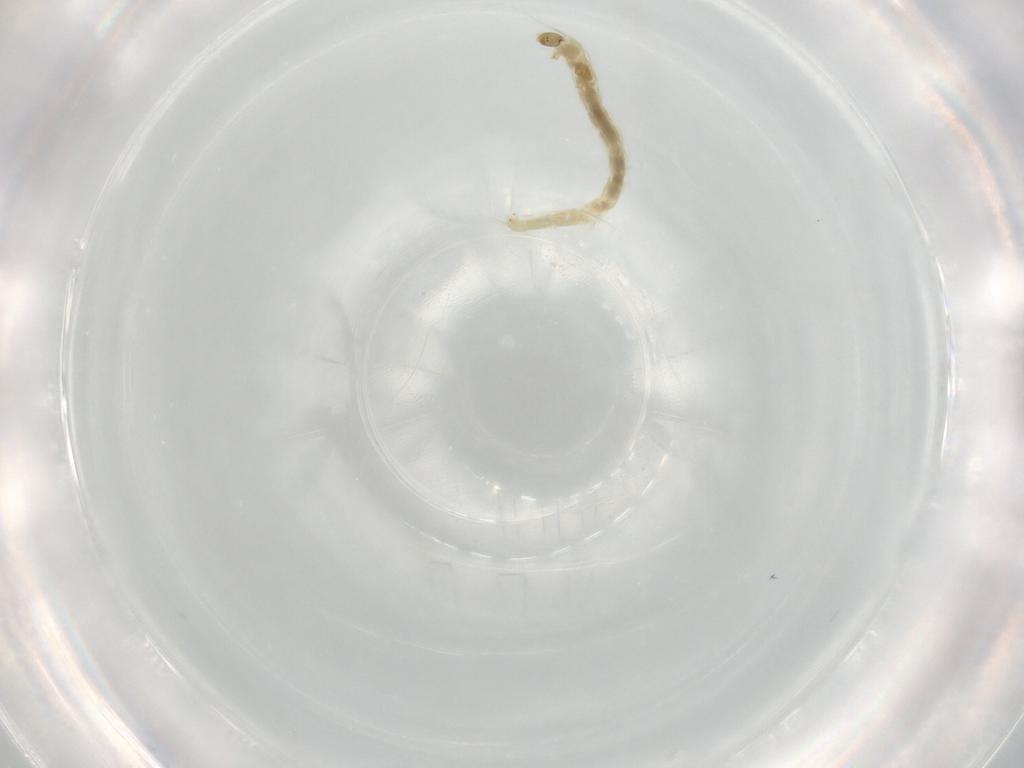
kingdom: Animalia
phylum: Arthropoda
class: Insecta
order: Diptera
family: Chironomidae
